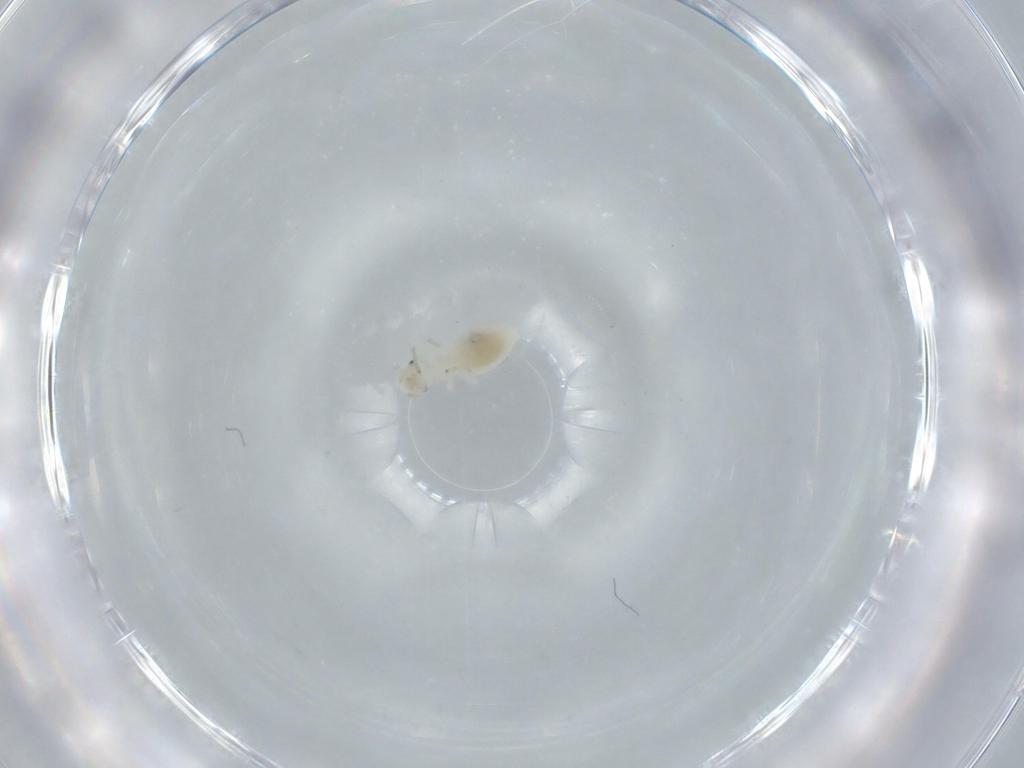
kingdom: Animalia
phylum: Arthropoda
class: Insecta
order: Psocodea
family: Caeciliusidae
